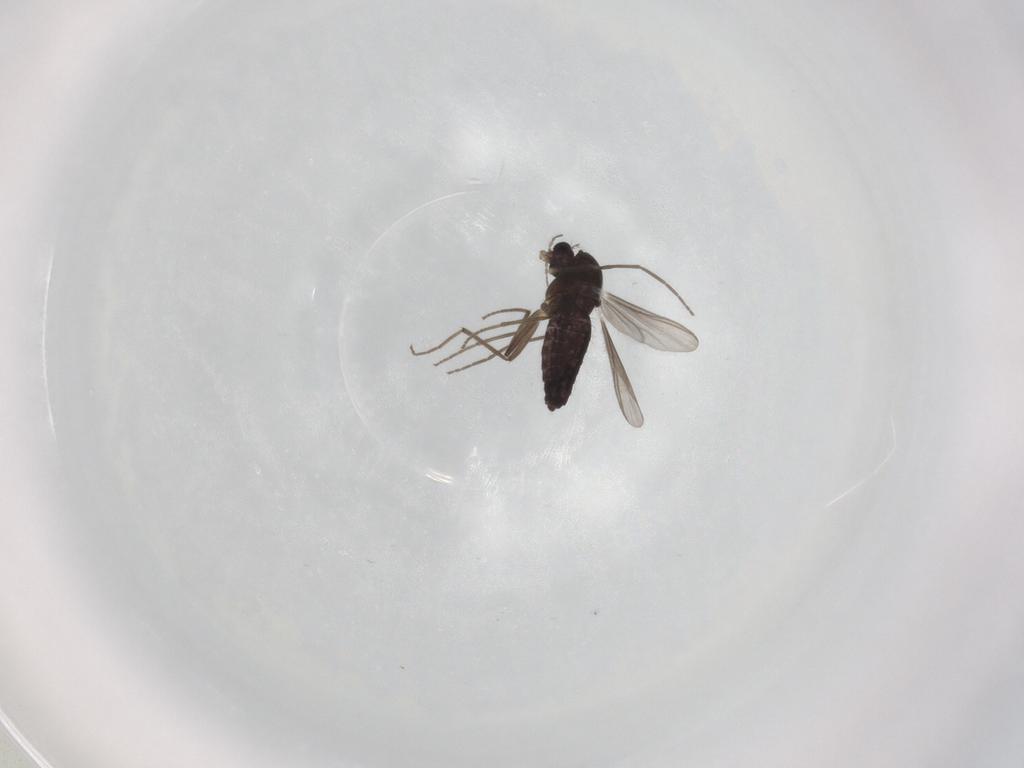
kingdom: Animalia
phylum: Arthropoda
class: Insecta
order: Diptera
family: Chironomidae
